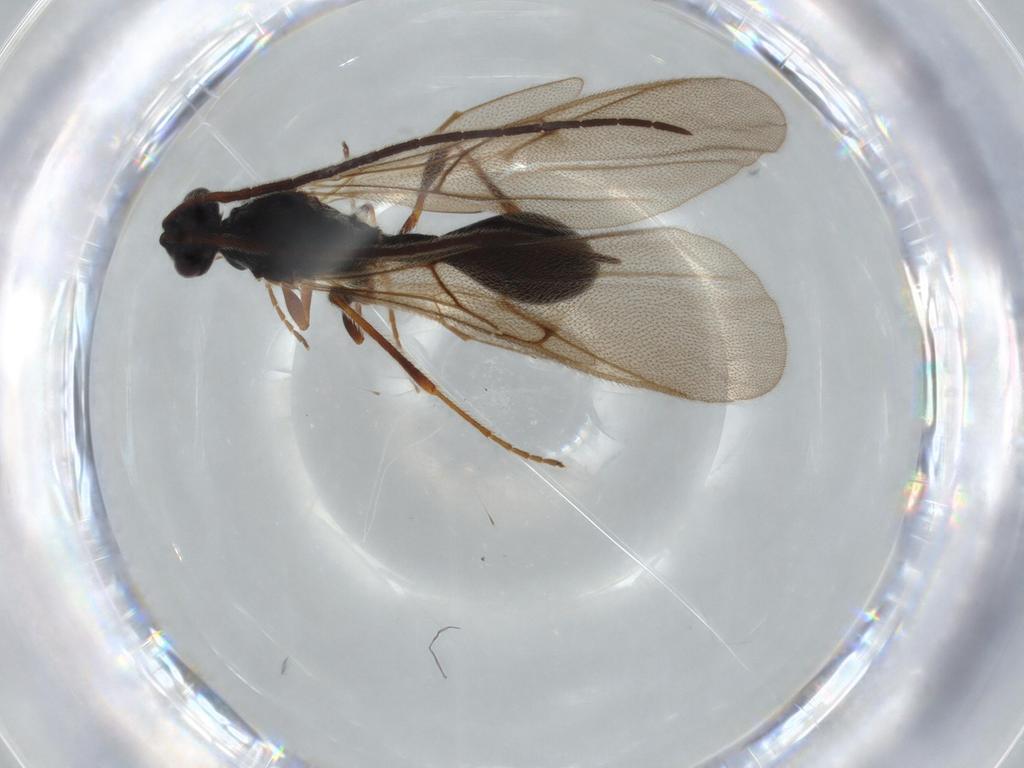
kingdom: Animalia
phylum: Arthropoda
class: Insecta
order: Hymenoptera
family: Diapriidae
